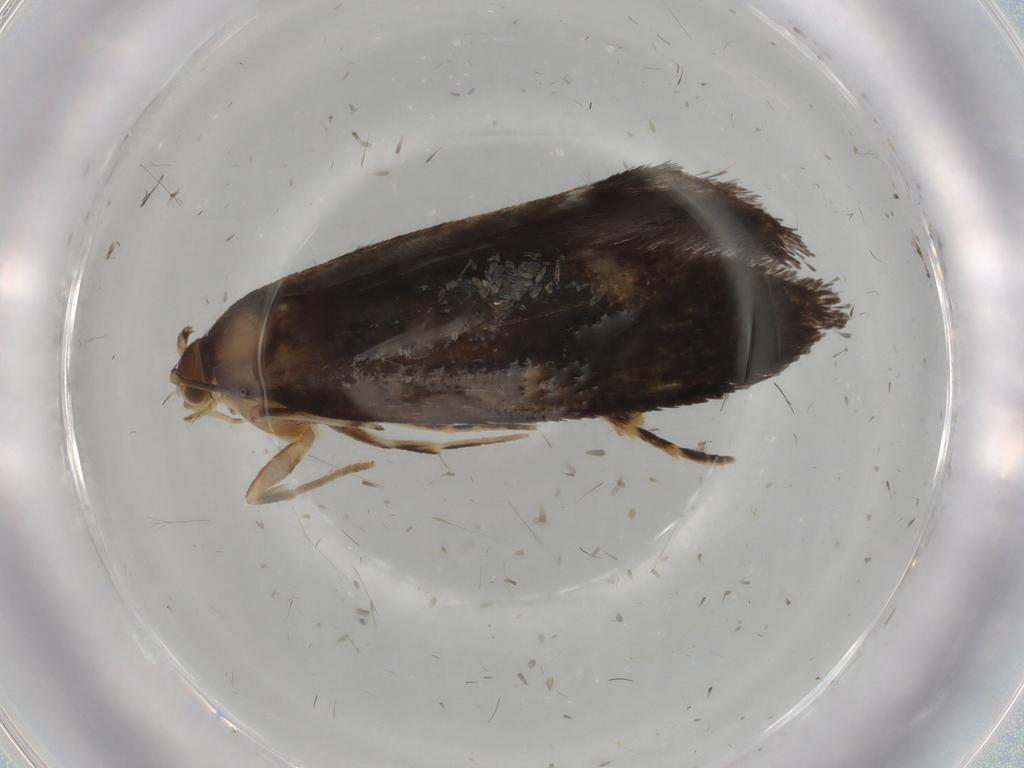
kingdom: Animalia
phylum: Arthropoda
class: Insecta
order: Lepidoptera
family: Tineidae
